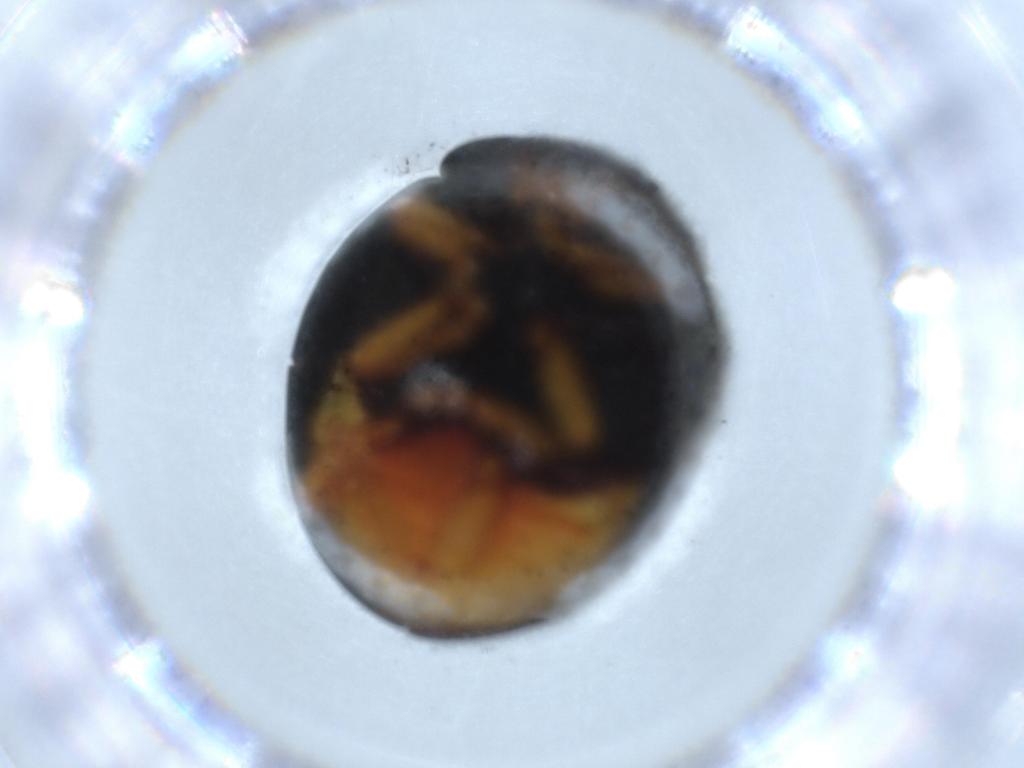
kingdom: Animalia
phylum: Arthropoda
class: Insecta
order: Coleoptera
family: Coccinellidae
